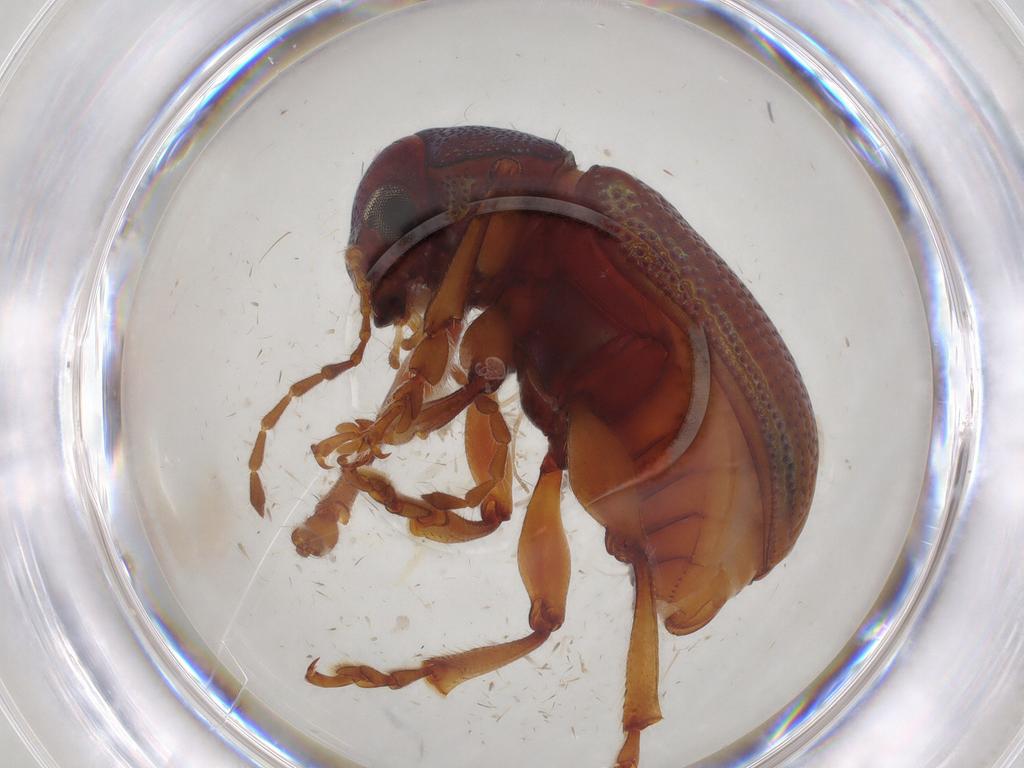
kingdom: Animalia
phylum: Arthropoda
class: Insecta
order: Coleoptera
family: Chrysomelidae
